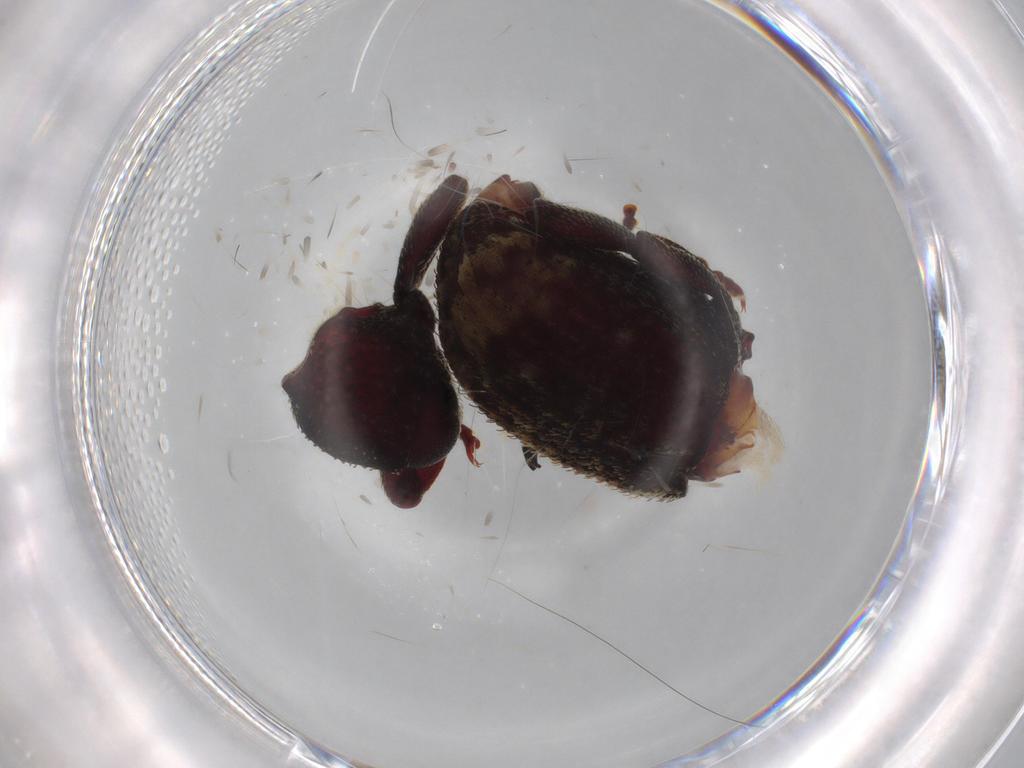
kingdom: Animalia
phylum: Arthropoda
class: Insecta
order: Coleoptera
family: Curculionidae
